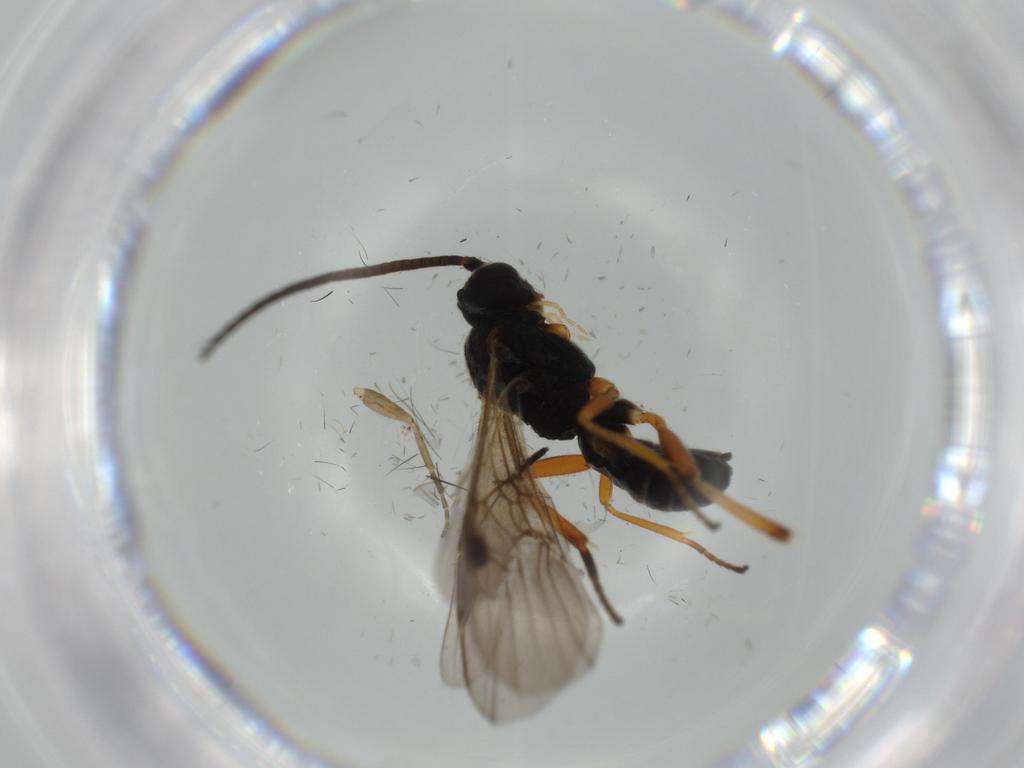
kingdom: Animalia
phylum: Arthropoda
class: Insecta
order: Hymenoptera
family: Braconidae
